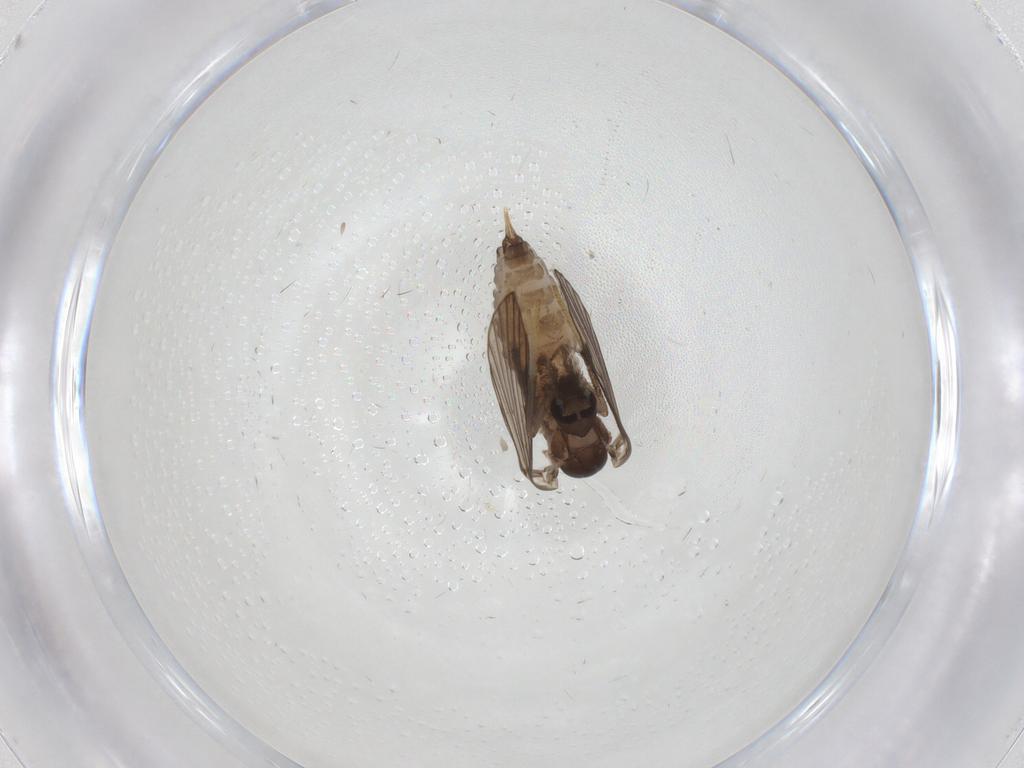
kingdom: Animalia
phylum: Arthropoda
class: Insecta
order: Diptera
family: Psychodidae
